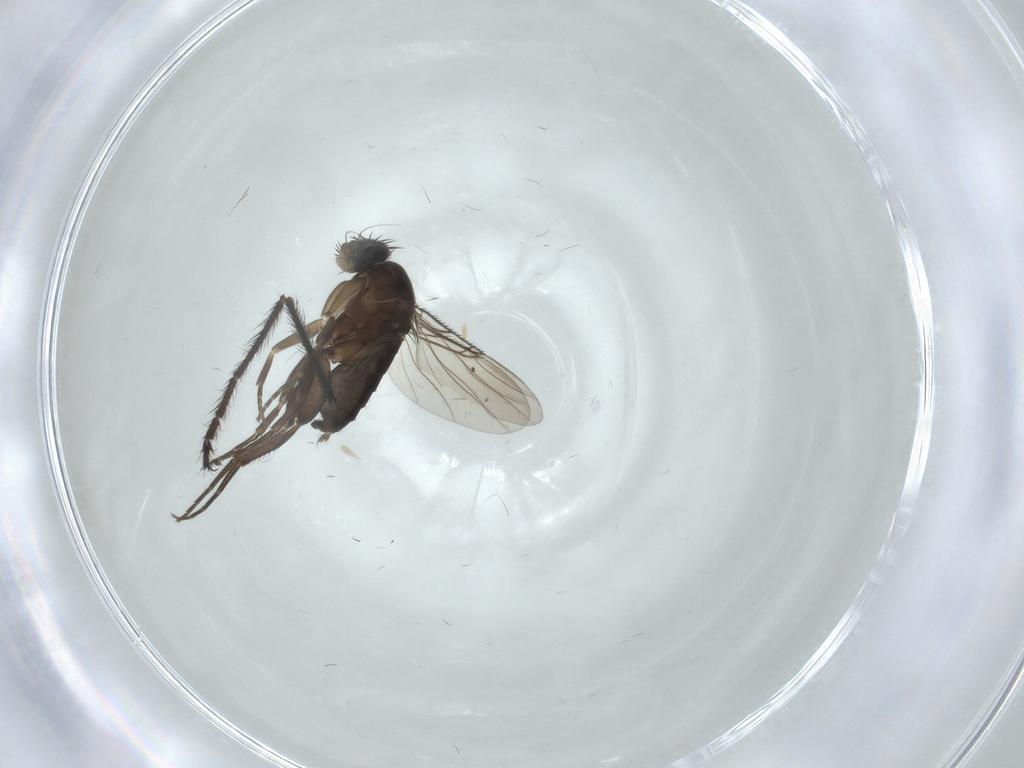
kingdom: Animalia
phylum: Arthropoda
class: Insecta
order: Diptera
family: Phoridae
